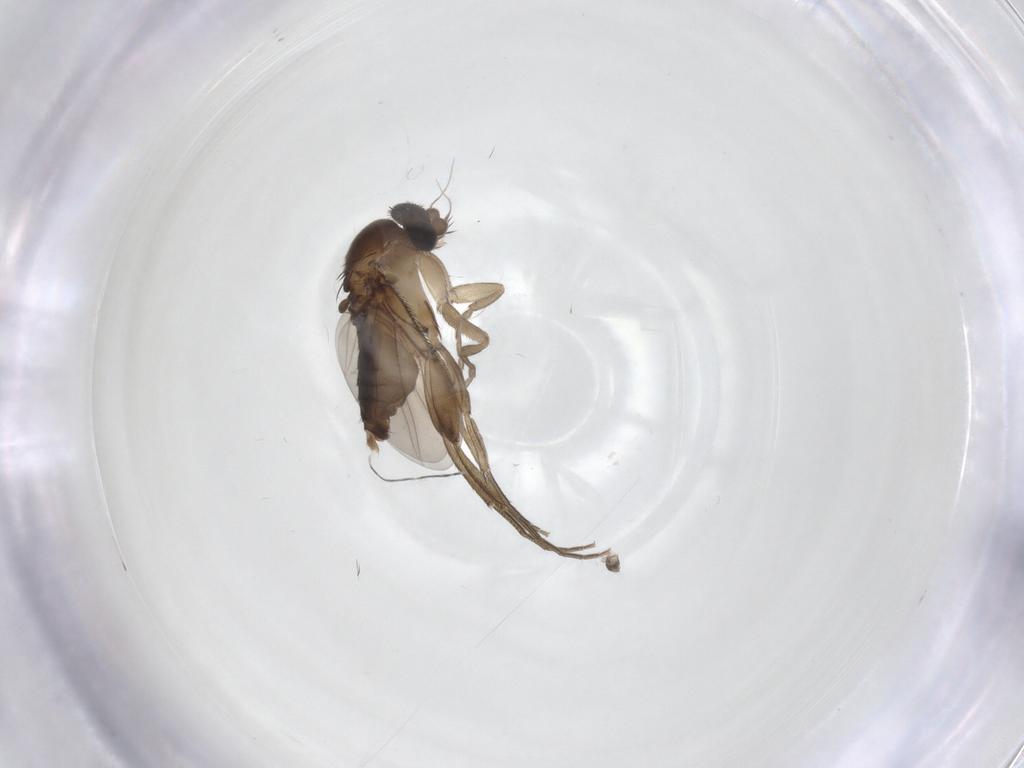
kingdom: Animalia
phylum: Arthropoda
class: Insecta
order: Diptera
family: Phoridae
